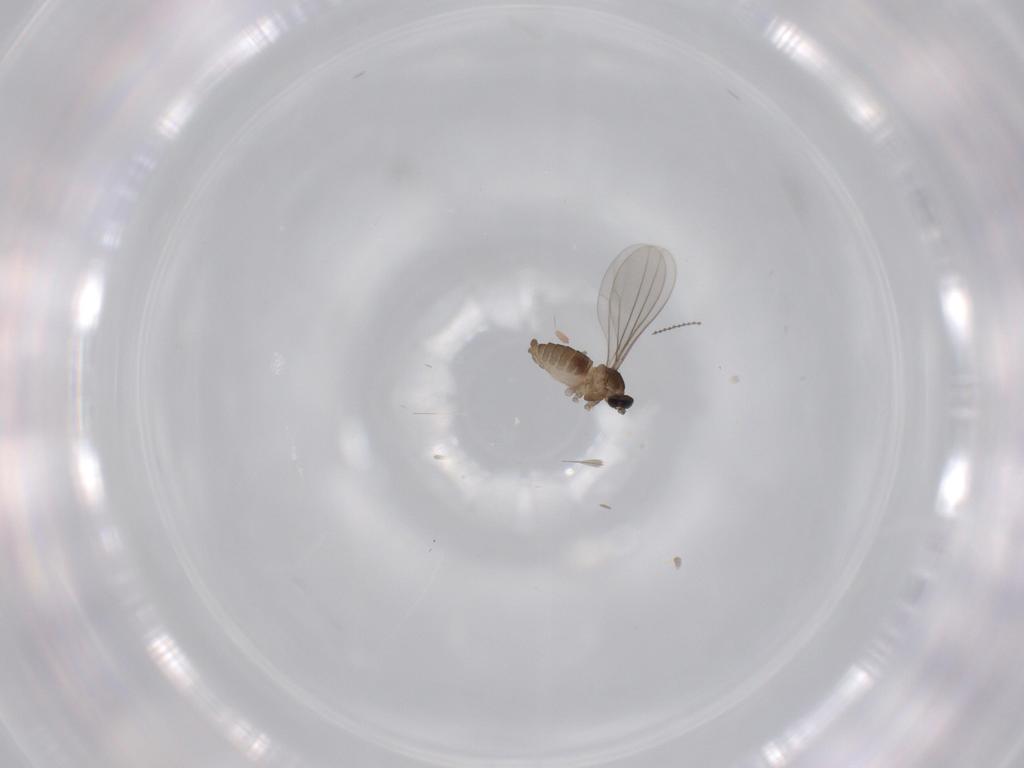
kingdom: Animalia
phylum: Arthropoda
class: Insecta
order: Diptera
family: Cecidomyiidae
